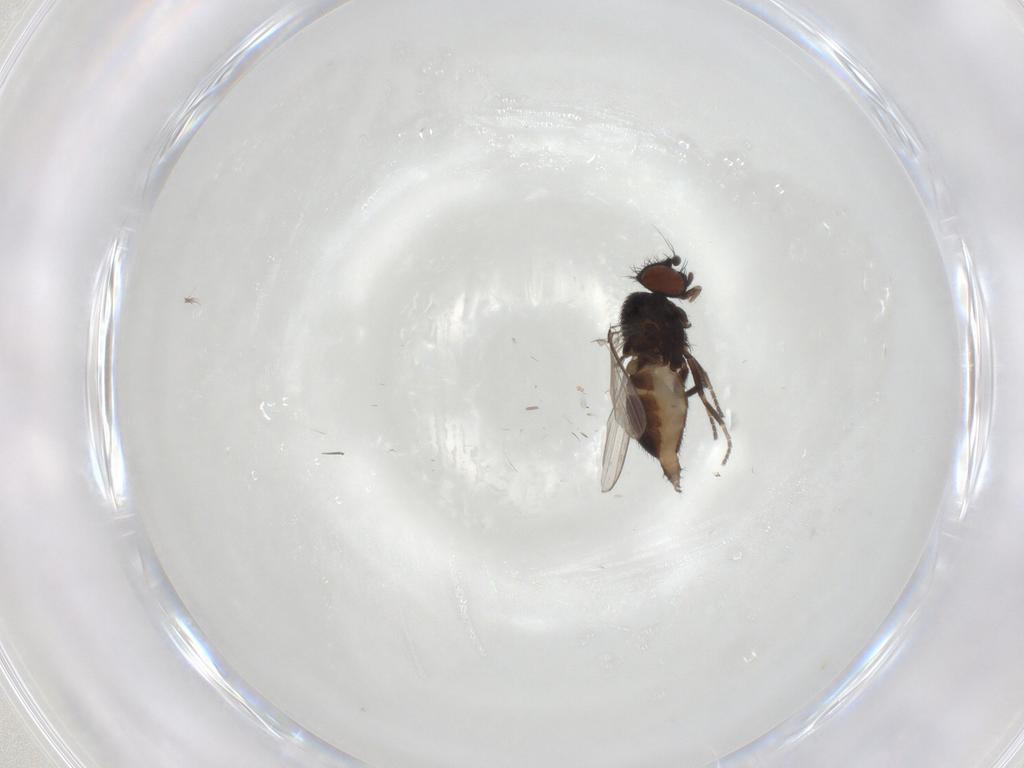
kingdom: Animalia
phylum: Arthropoda
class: Insecta
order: Diptera
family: Milichiidae
